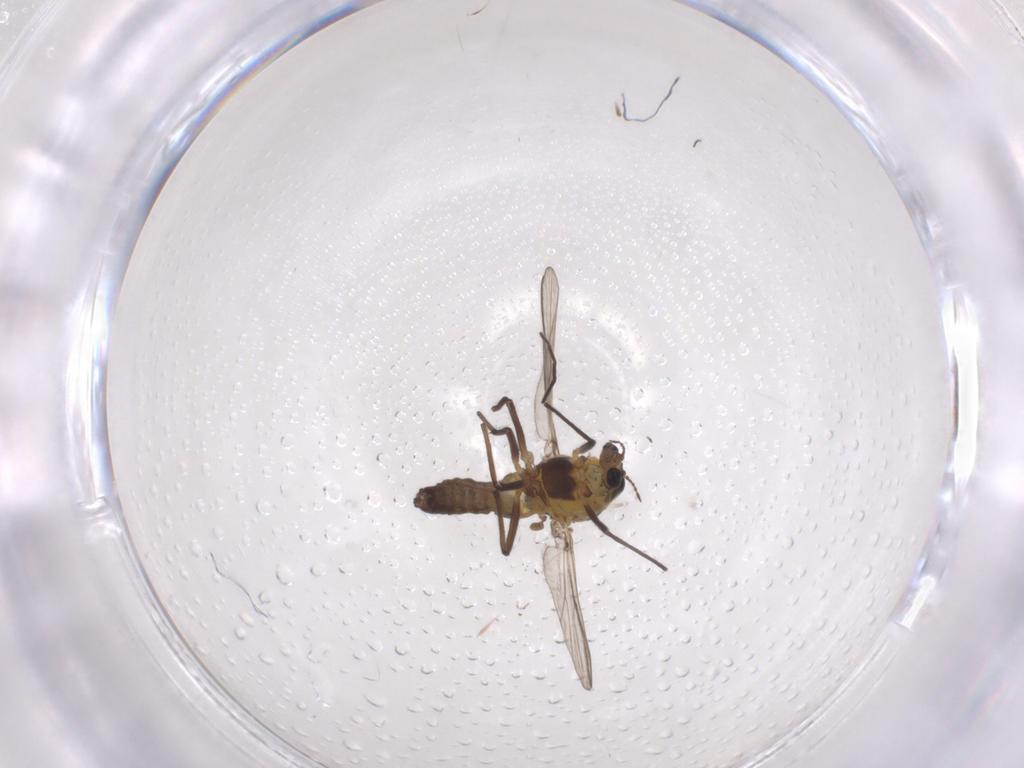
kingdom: Animalia
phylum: Arthropoda
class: Insecta
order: Diptera
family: Chironomidae
